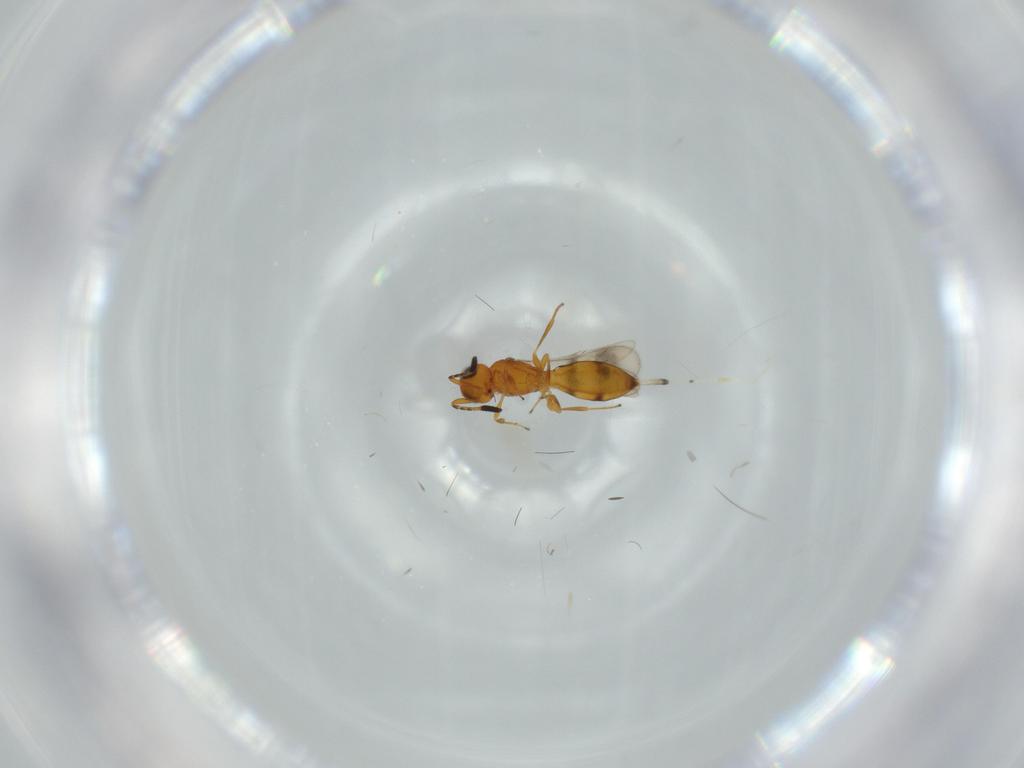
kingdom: Animalia
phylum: Arthropoda
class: Insecta
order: Hymenoptera
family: Scelionidae
